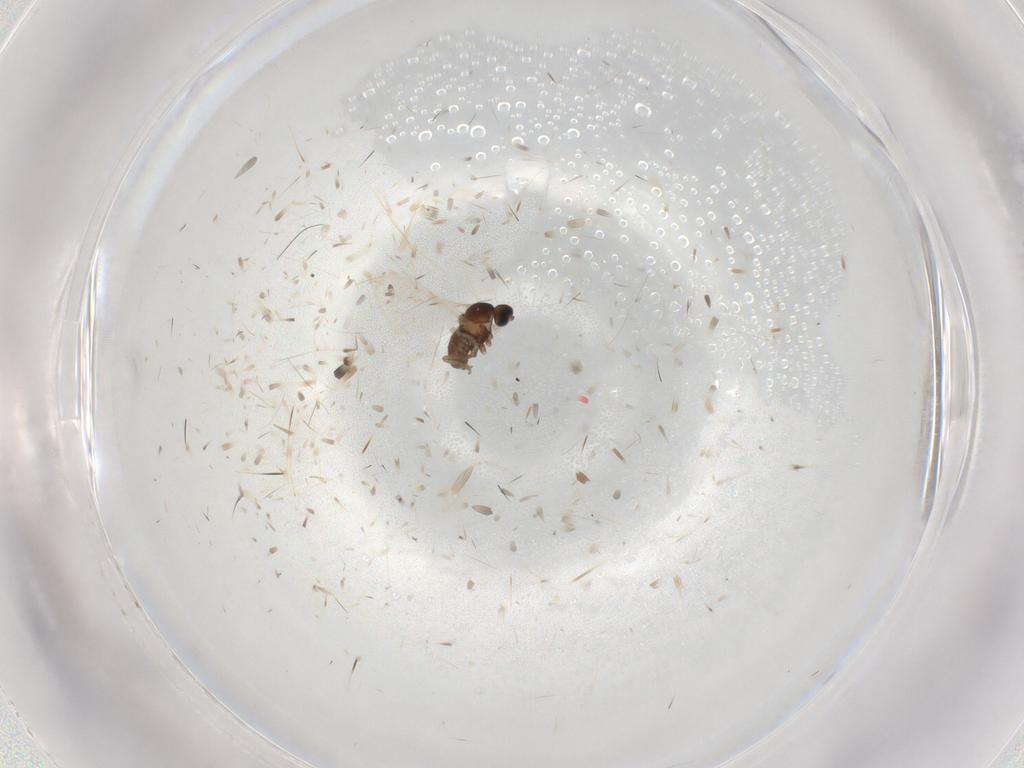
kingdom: Animalia
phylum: Arthropoda
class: Insecta
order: Diptera
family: Cecidomyiidae
